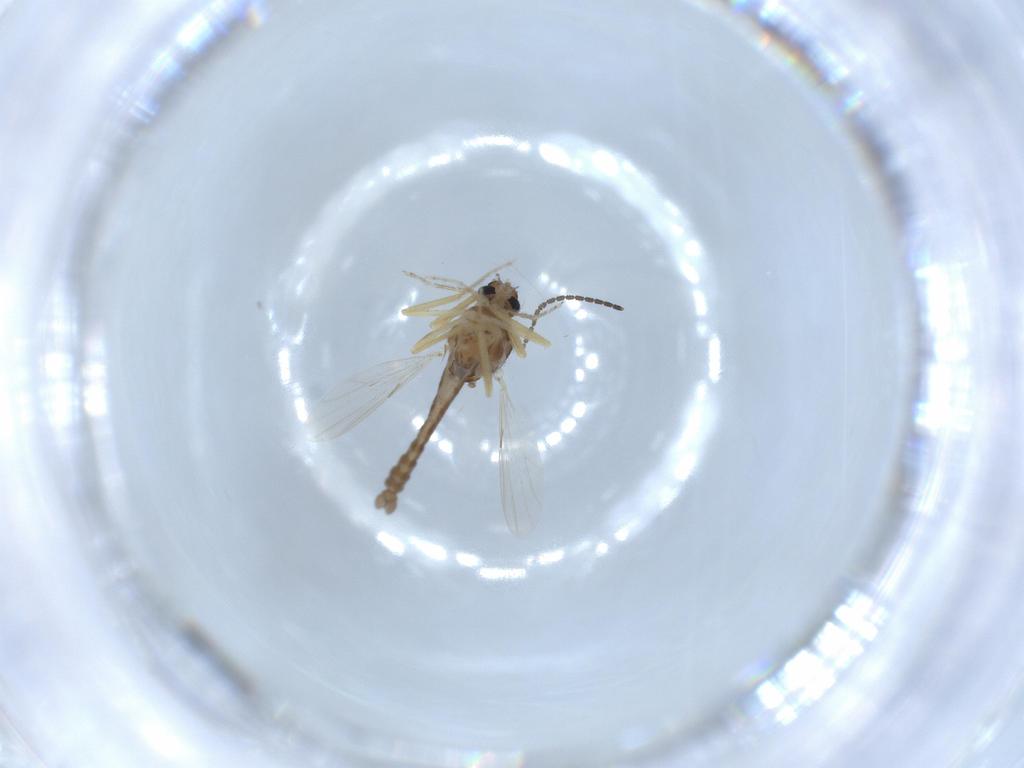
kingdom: Animalia
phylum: Arthropoda
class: Insecta
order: Diptera
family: Ceratopogonidae
